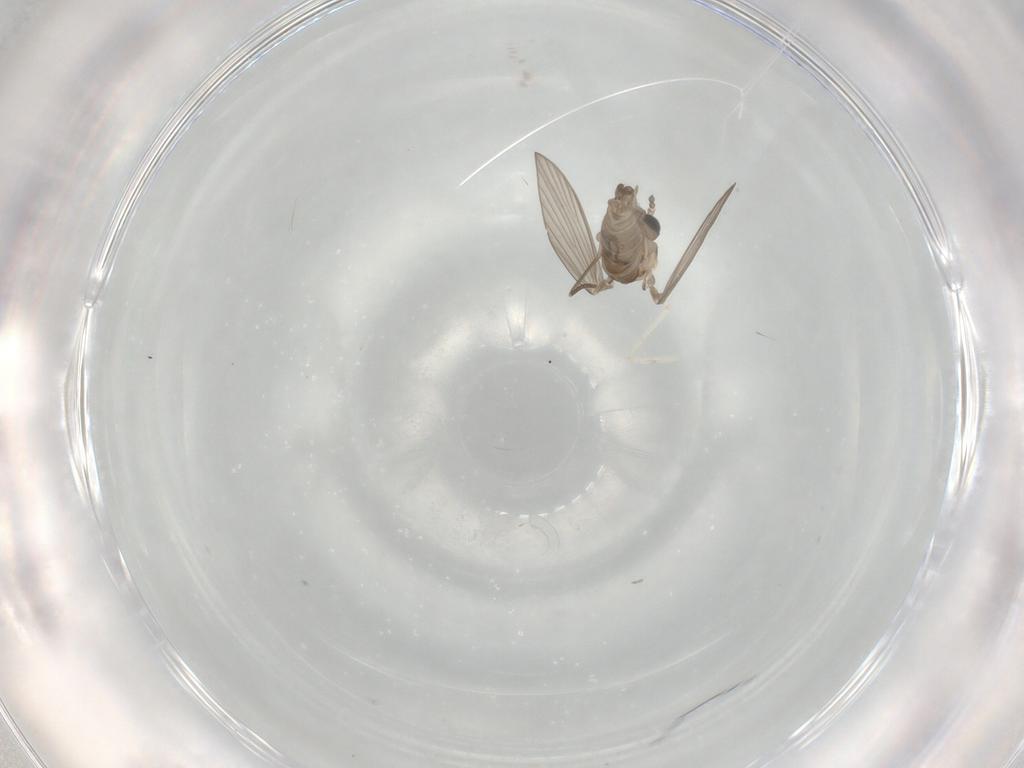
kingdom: Animalia
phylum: Arthropoda
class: Insecta
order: Diptera
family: Psychodidae
